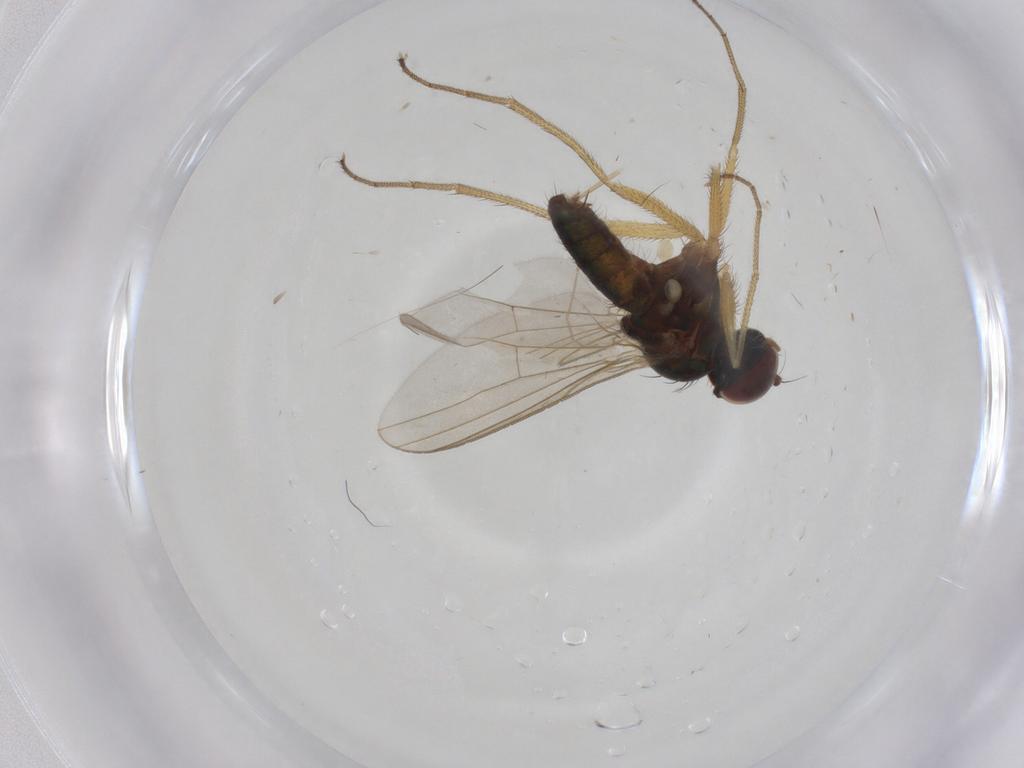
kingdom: Animalia
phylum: Arthropoda
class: Insecta
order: Diptera
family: Dolichopodidae
